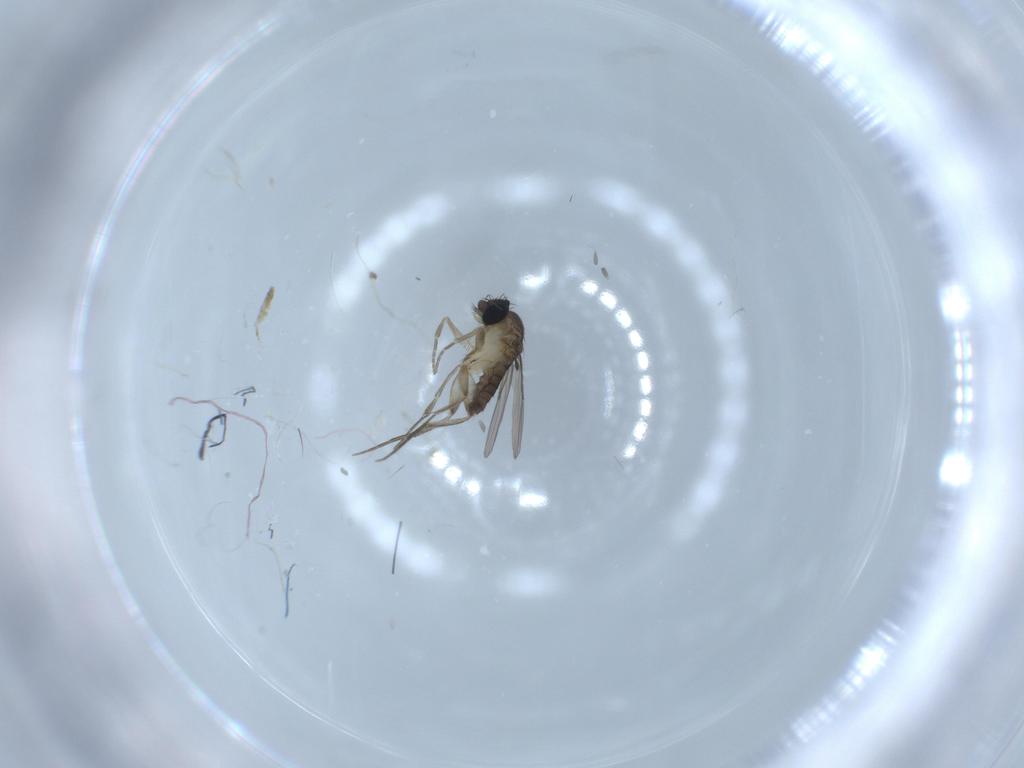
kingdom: Animalia
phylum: Arthropoda
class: Insecta
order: Diptera
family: Phoridae
